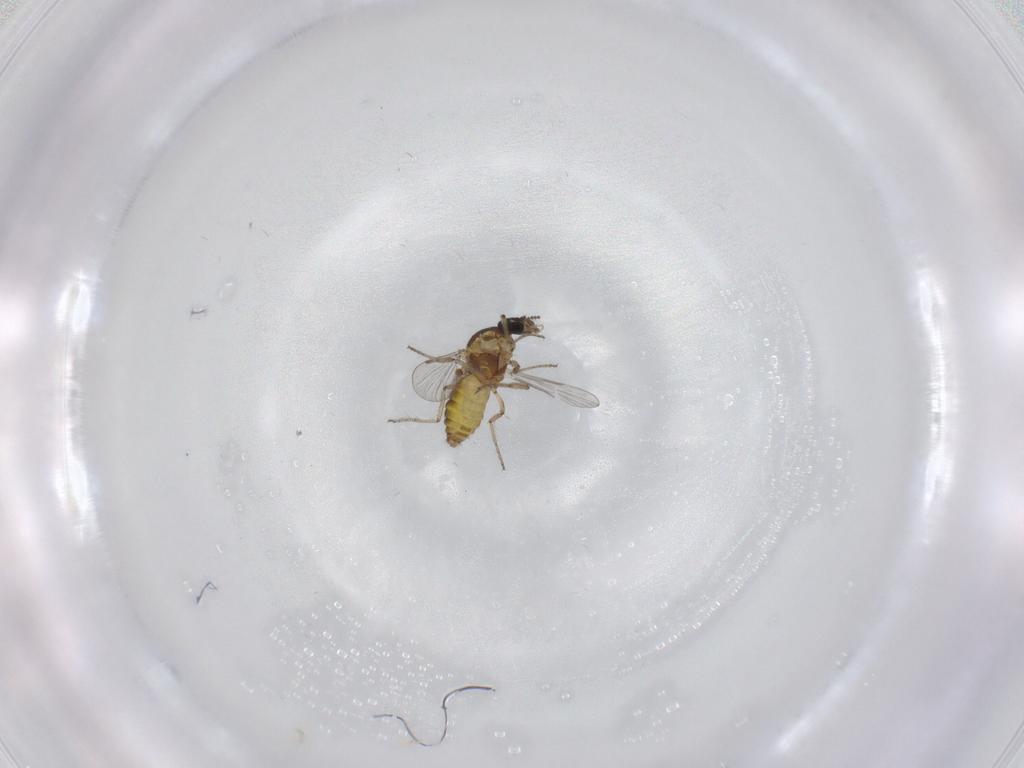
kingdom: Animalia
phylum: Arthropoda
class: Insecta
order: Diptera
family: Ceratopogonidae
